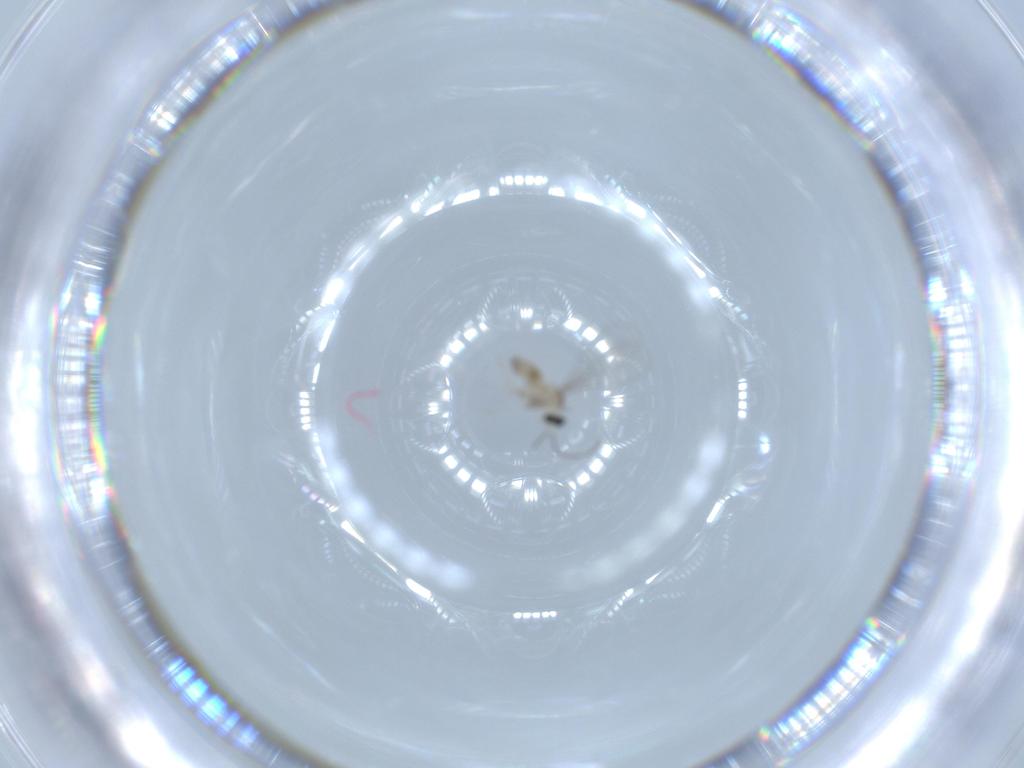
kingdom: Animalia
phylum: Arthropoda
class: Insecta
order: Diptera
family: Cecidomyiidae
